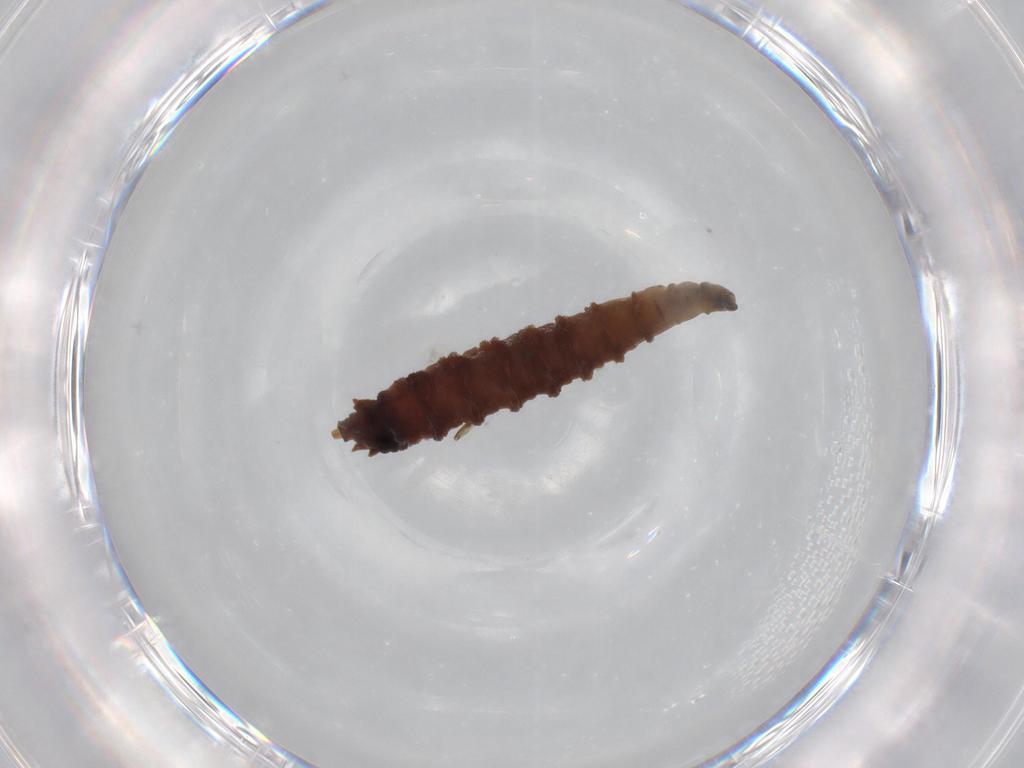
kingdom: Animalia
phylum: Arthropoda
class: Insecta
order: Diptera
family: Drosophilidae
